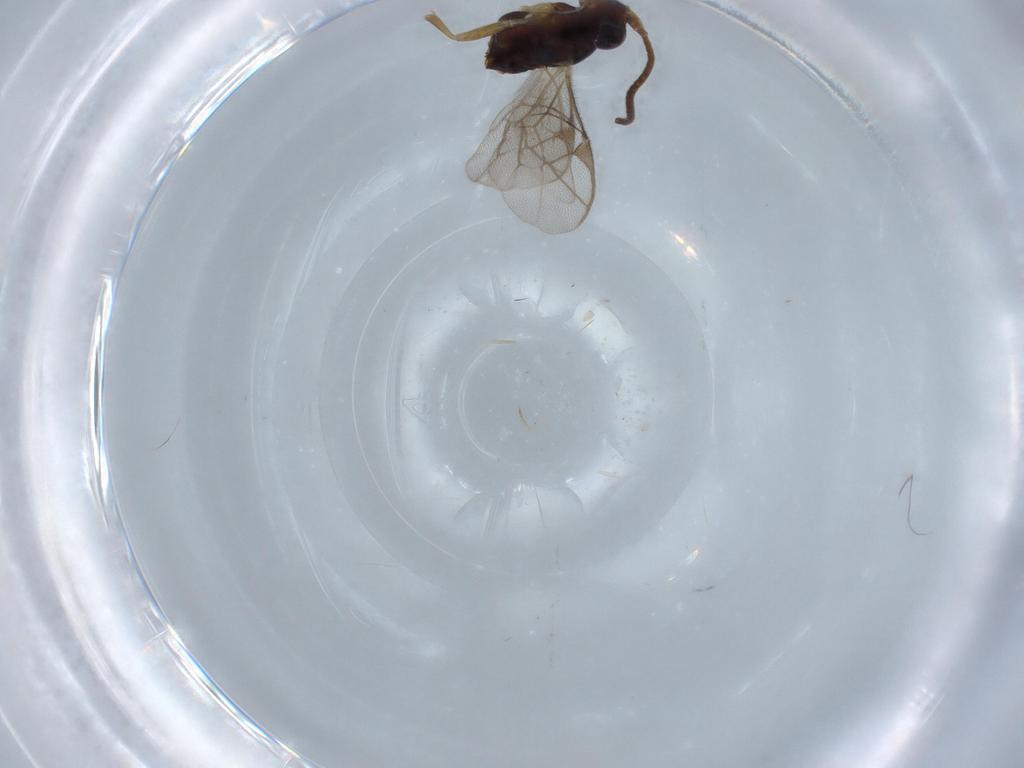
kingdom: Animalia
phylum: Arthropoda
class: Insecta
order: Hymenoptera
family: Ichneumonidae
